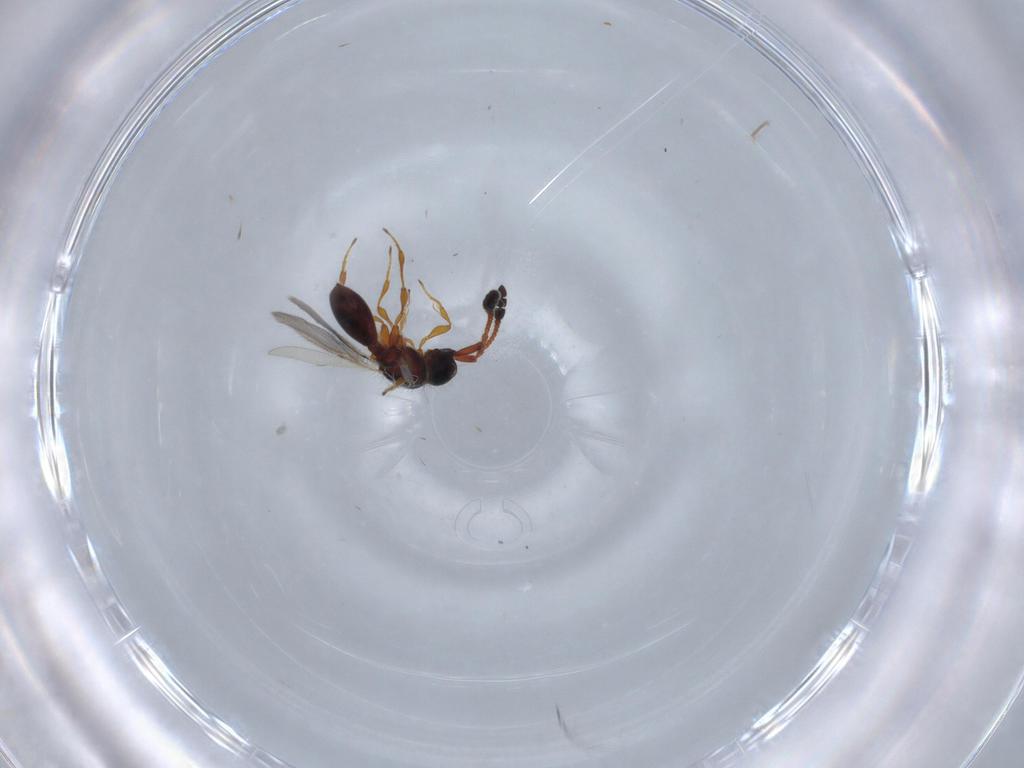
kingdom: Animalia
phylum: Arthropoda
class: Insecta
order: Hymenoptera
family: Diapriidae
